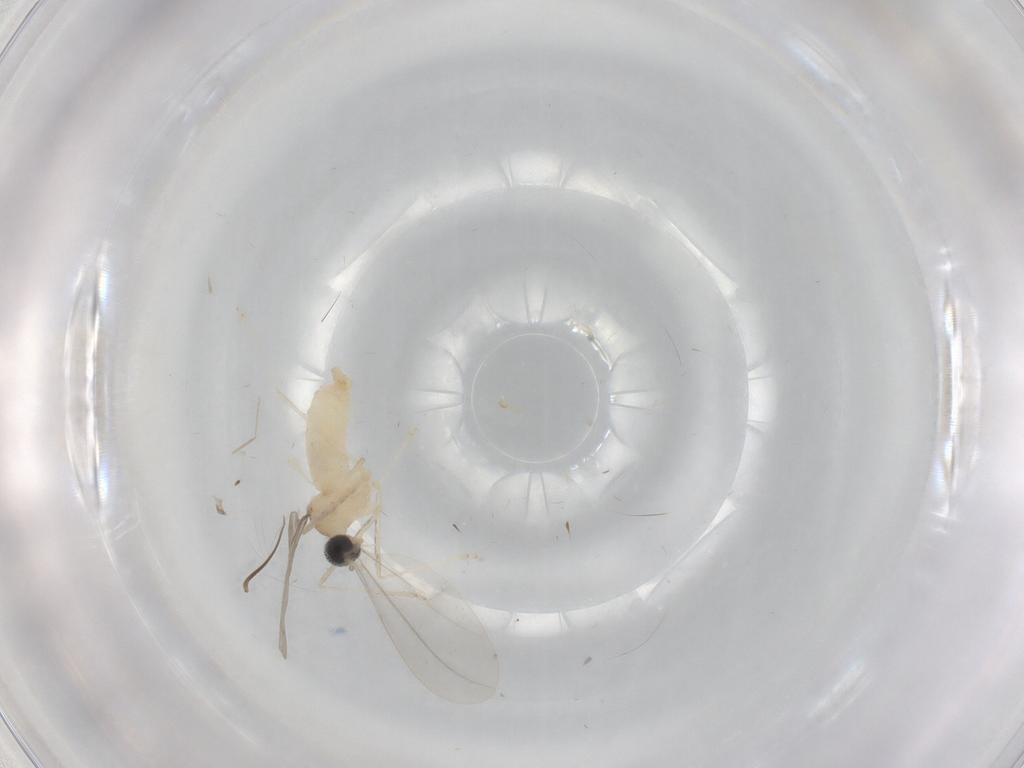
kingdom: Animalia
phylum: Arthropoda
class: Insecta
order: Diptera
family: Cecidomyiidae
